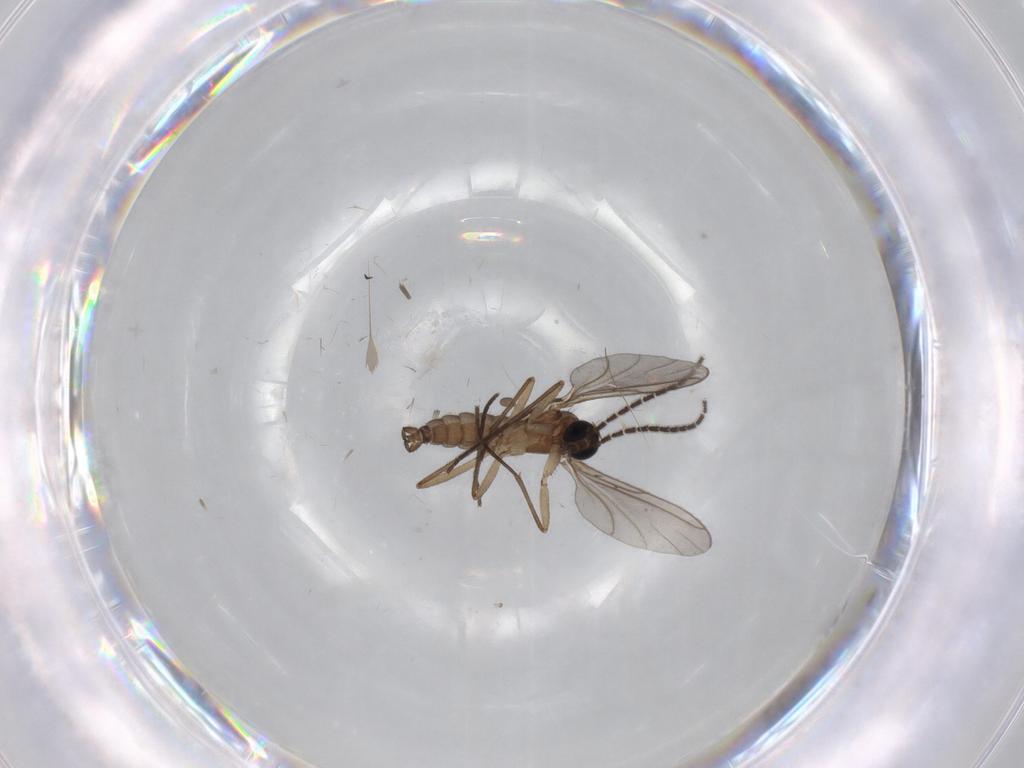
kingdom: Animalia
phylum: Arthropoda
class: Insecta
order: Diptera
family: Sciaridae
